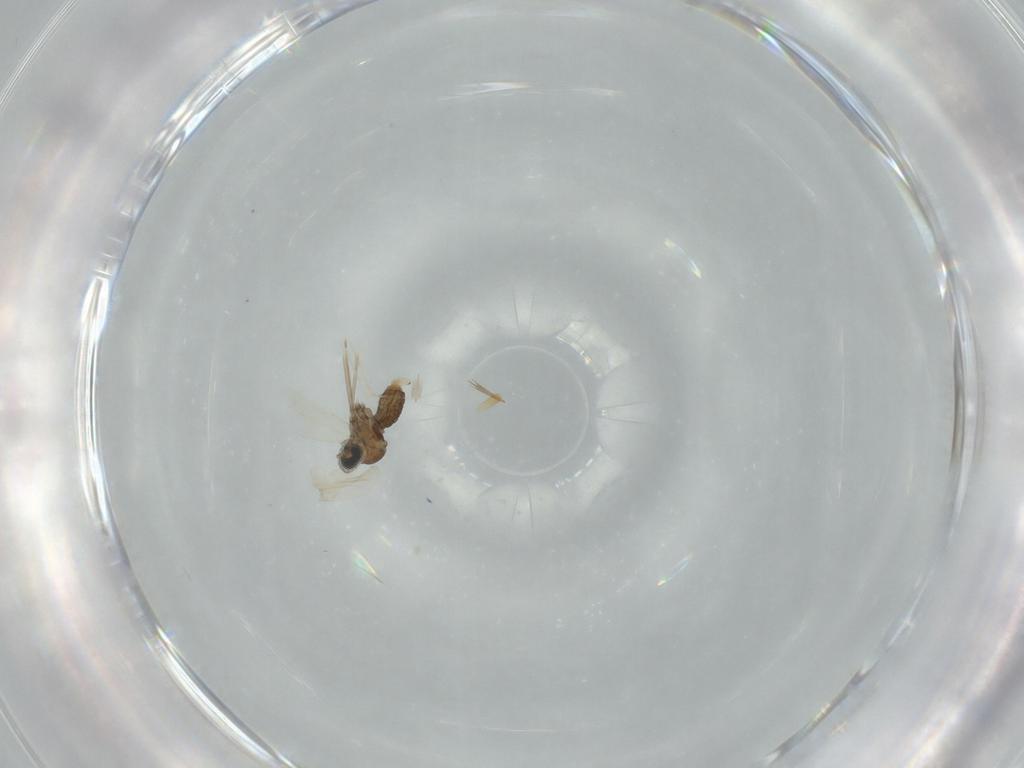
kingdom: Animalia
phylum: Arthropoda
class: Insecta
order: Diptera
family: Cecidomyiidae
